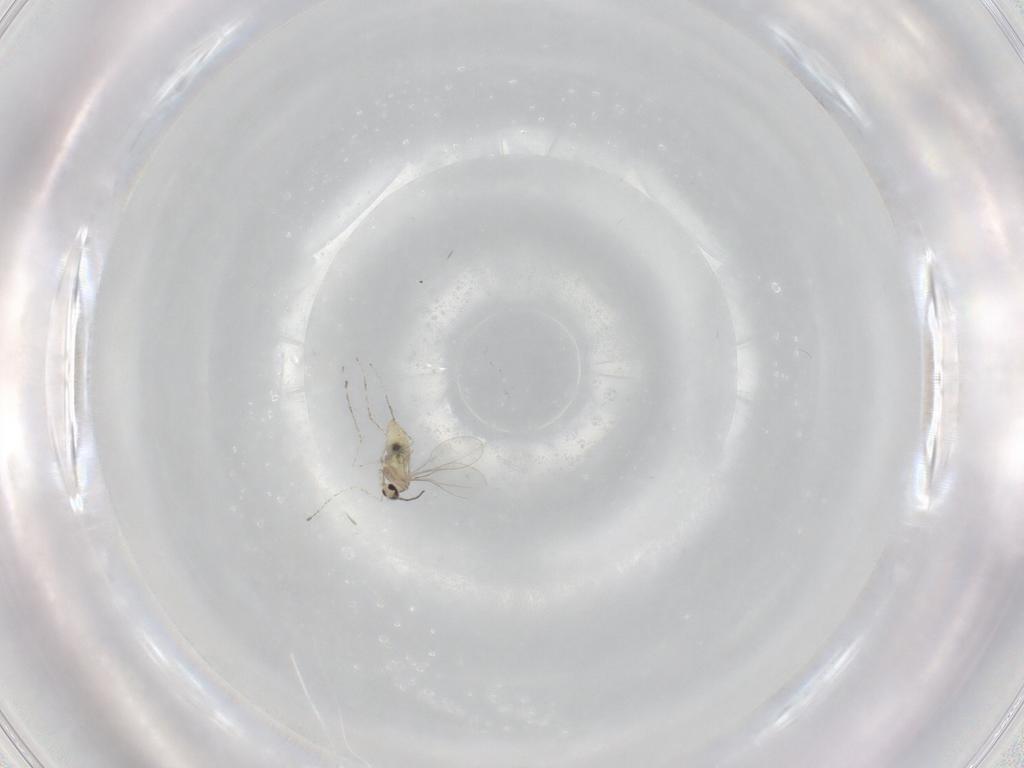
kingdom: Animalia
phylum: Arthropoda
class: Insecta
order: Diptera
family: Cecidomyiidae
